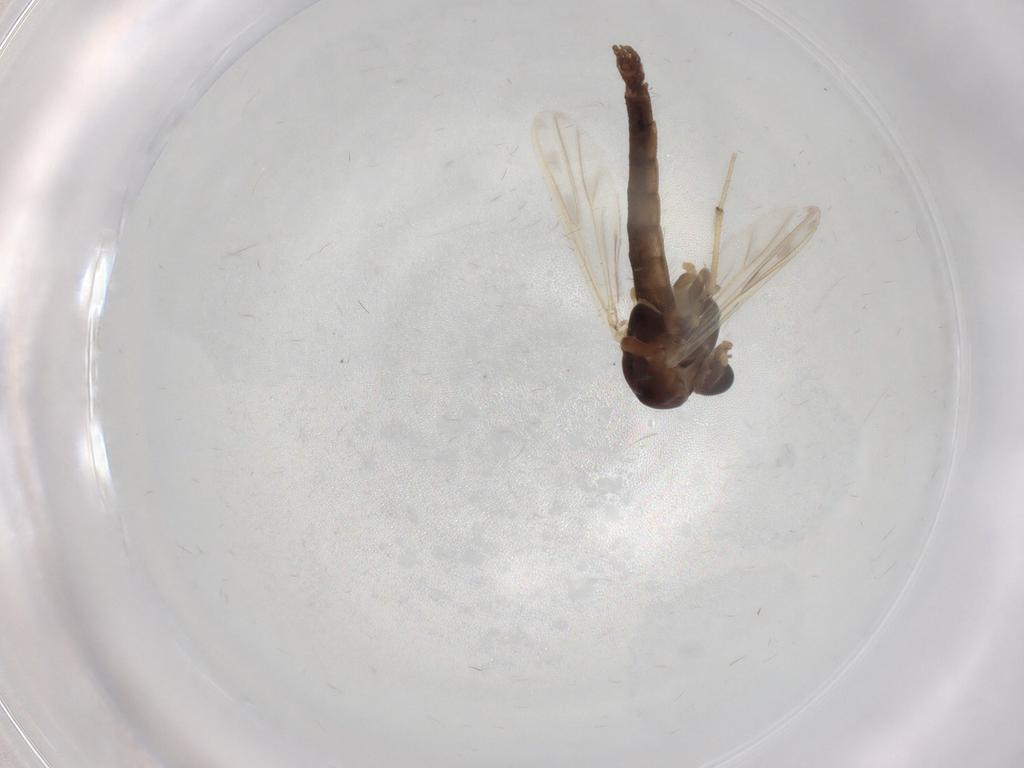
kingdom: Animalia
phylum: Arthropoda
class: Insecta
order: Diptera
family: Chironomidae
